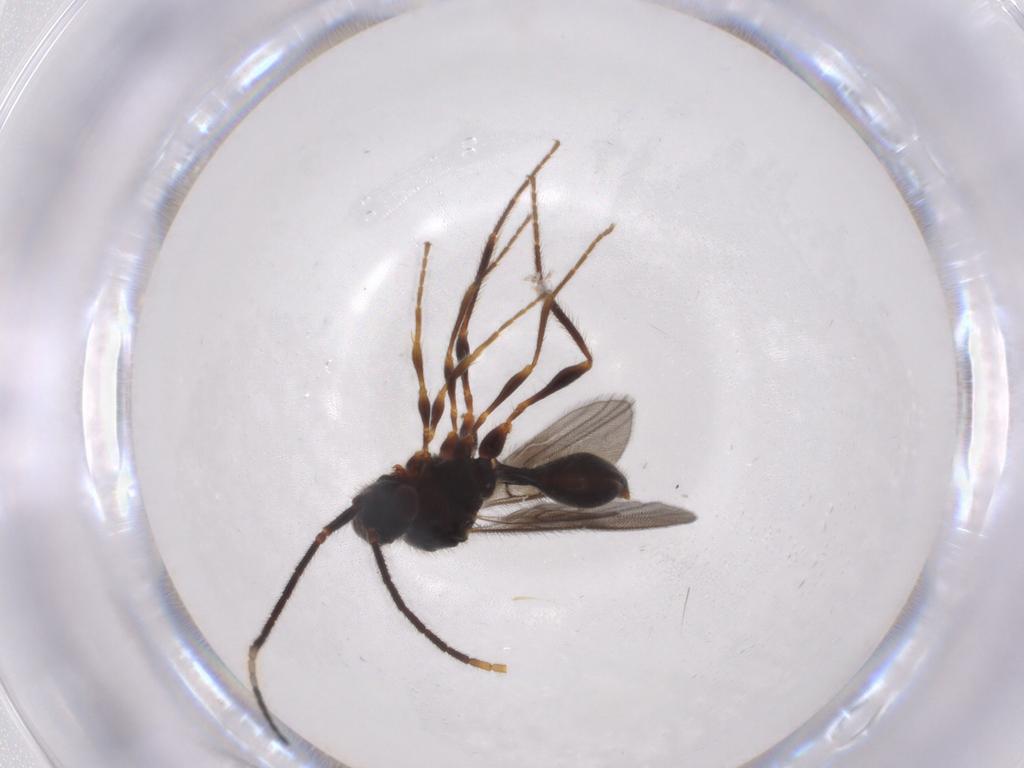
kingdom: Animalia
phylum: Arthropoda
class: Insecta
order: Hymenoptera
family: Diapriidae
